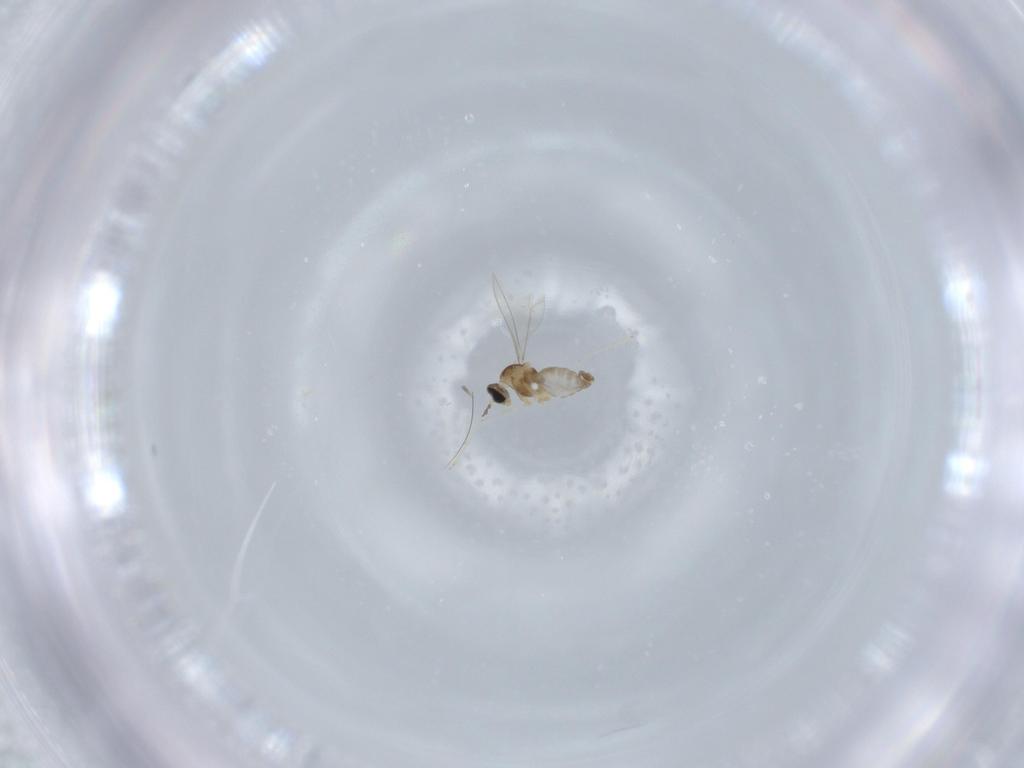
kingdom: Animalia
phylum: Arthropoda
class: Insecta
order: Diptera
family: Cecidomyiidae
